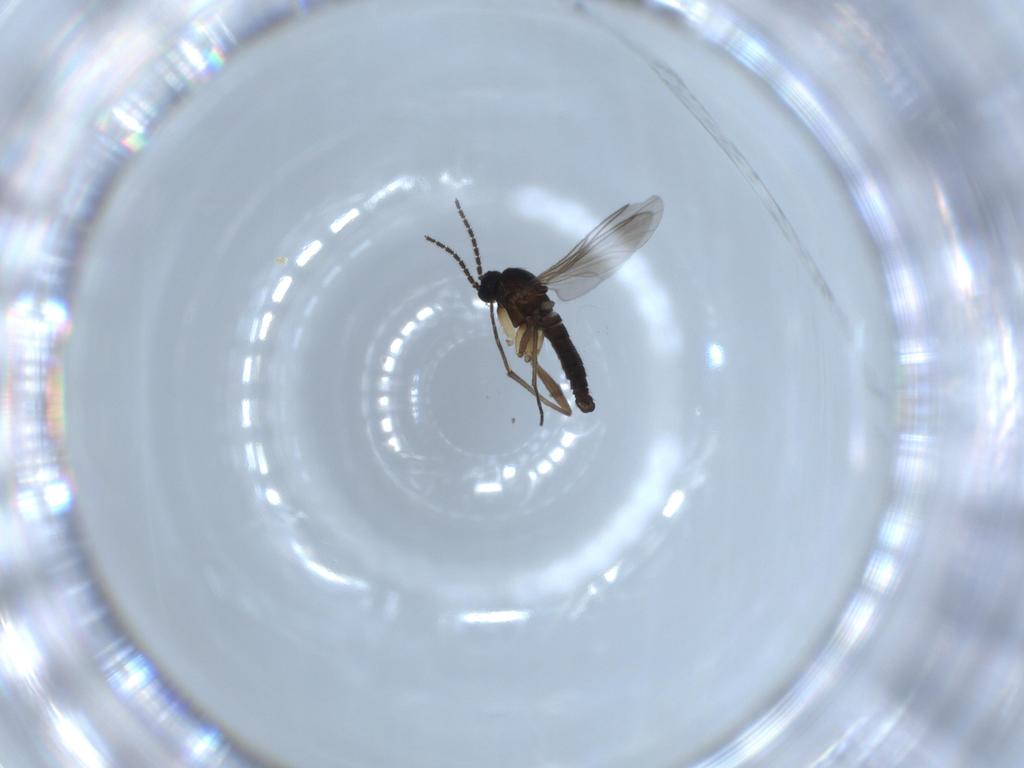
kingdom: Animalia
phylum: Arthropoda
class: Insecta
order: Diptera
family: Sciaridae
